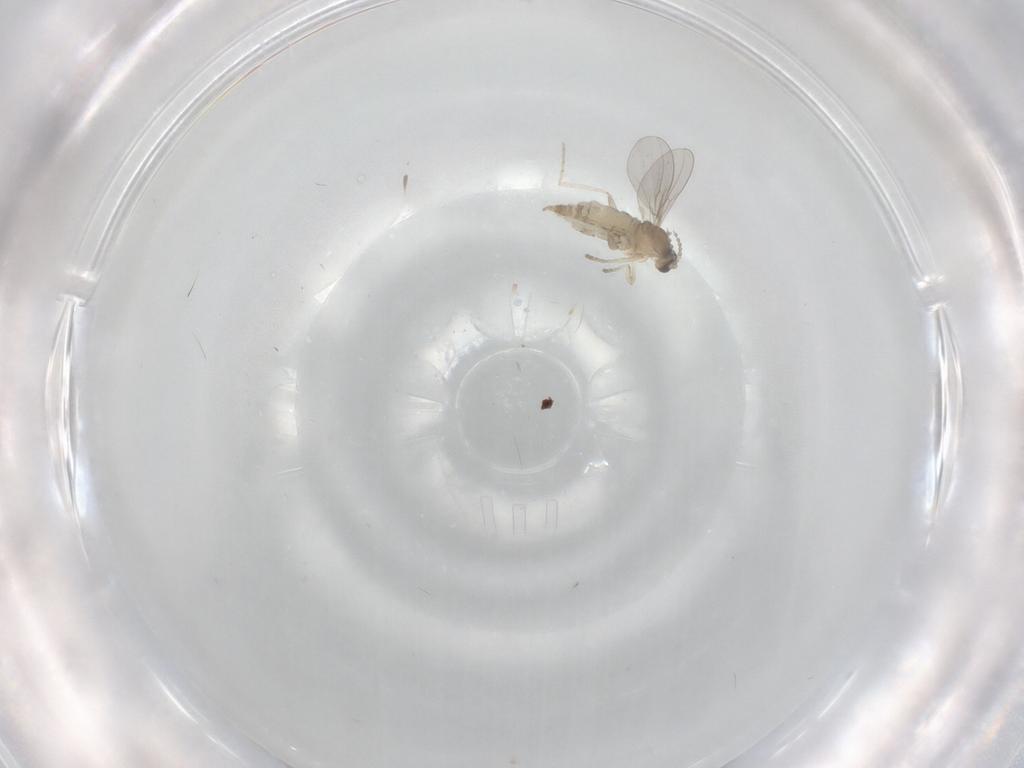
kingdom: Animalia
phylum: Arthropoda
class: Insecta
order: Diptera
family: Cecidomyiidae
